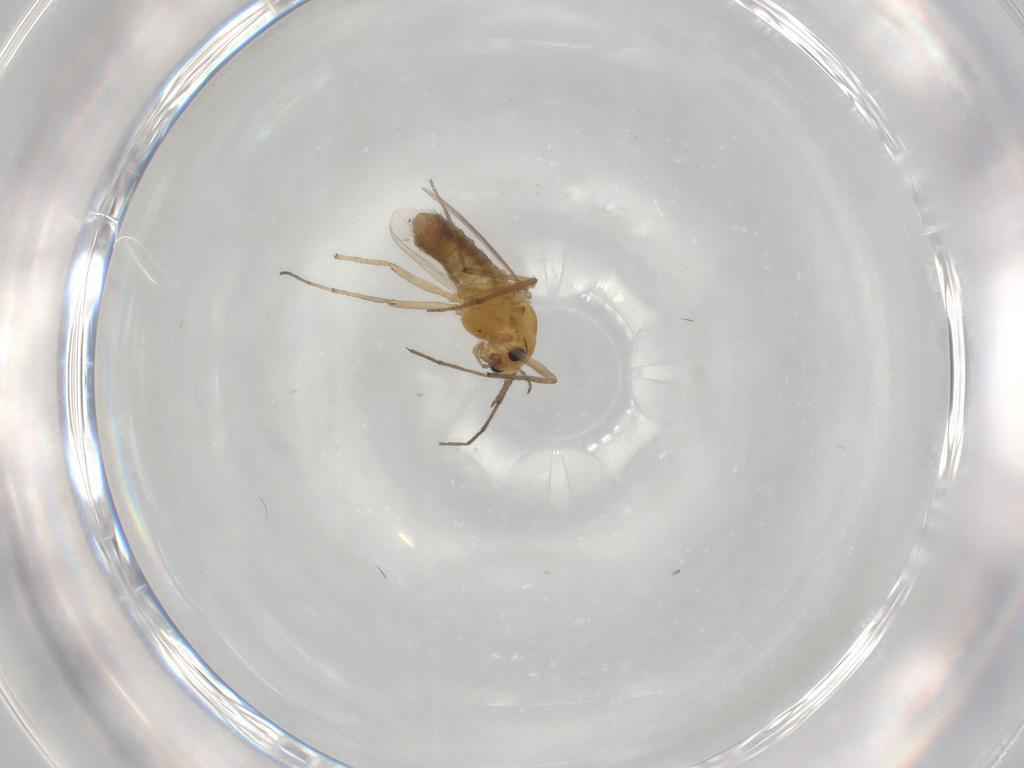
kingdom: Animalia
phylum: Arthropoda
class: Insecta
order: Diptera
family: Chironomidae
